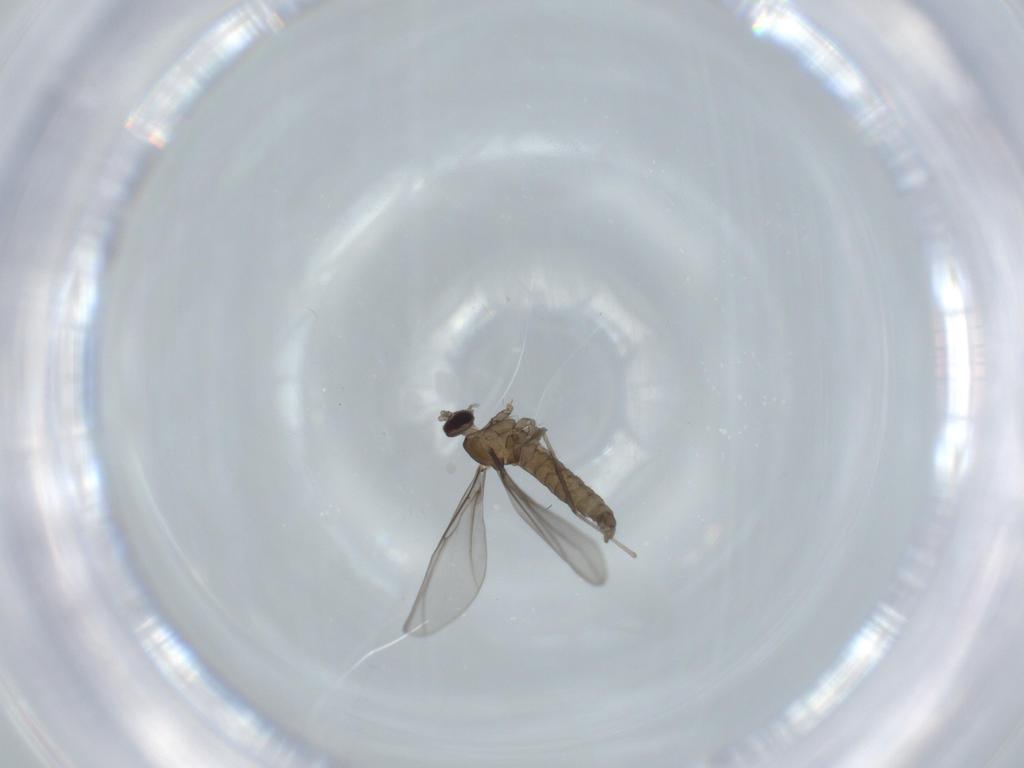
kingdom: Animalia
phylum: Arthropoda
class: Insecta
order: Diptera
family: Cecidomyiidae
